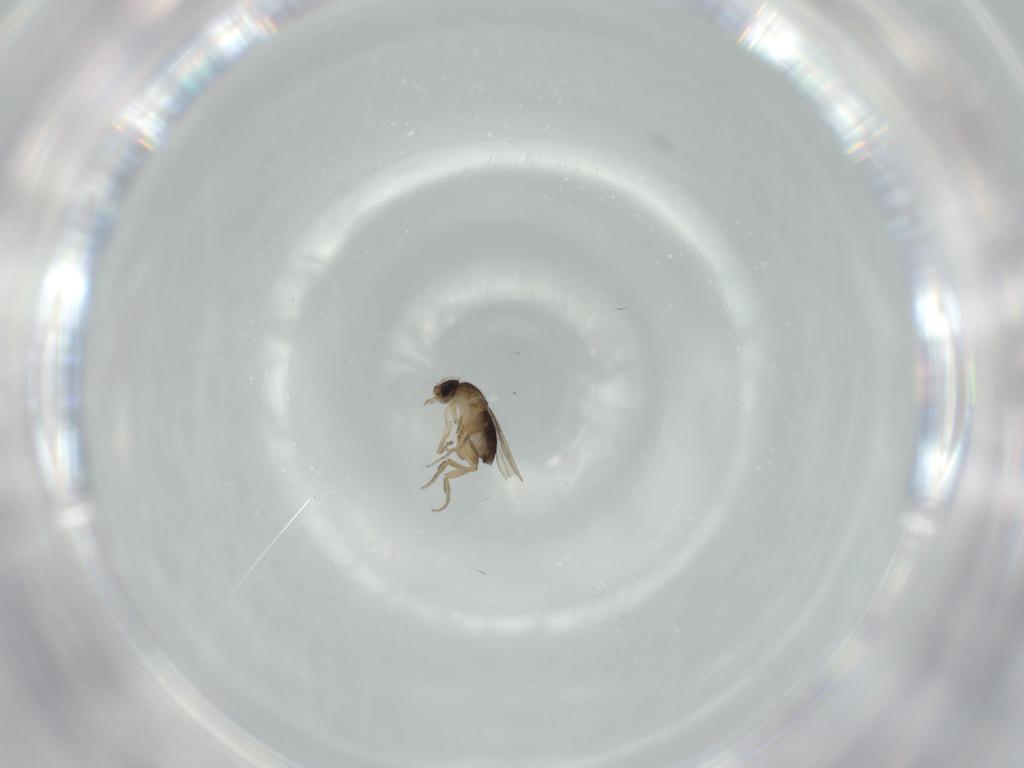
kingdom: Animalia
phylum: Arthropoda
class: Insecta
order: Diptera
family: Phoridae
